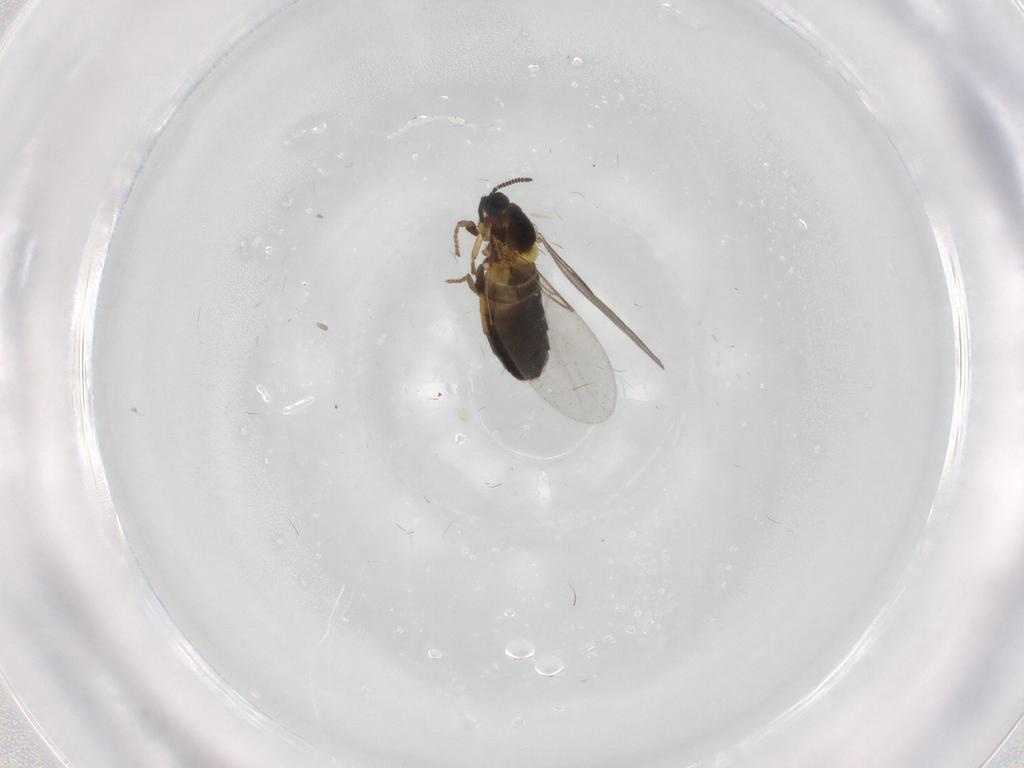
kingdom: Animalia
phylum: Arthropoda
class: Insecta
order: Diptera
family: Scatopsidae
